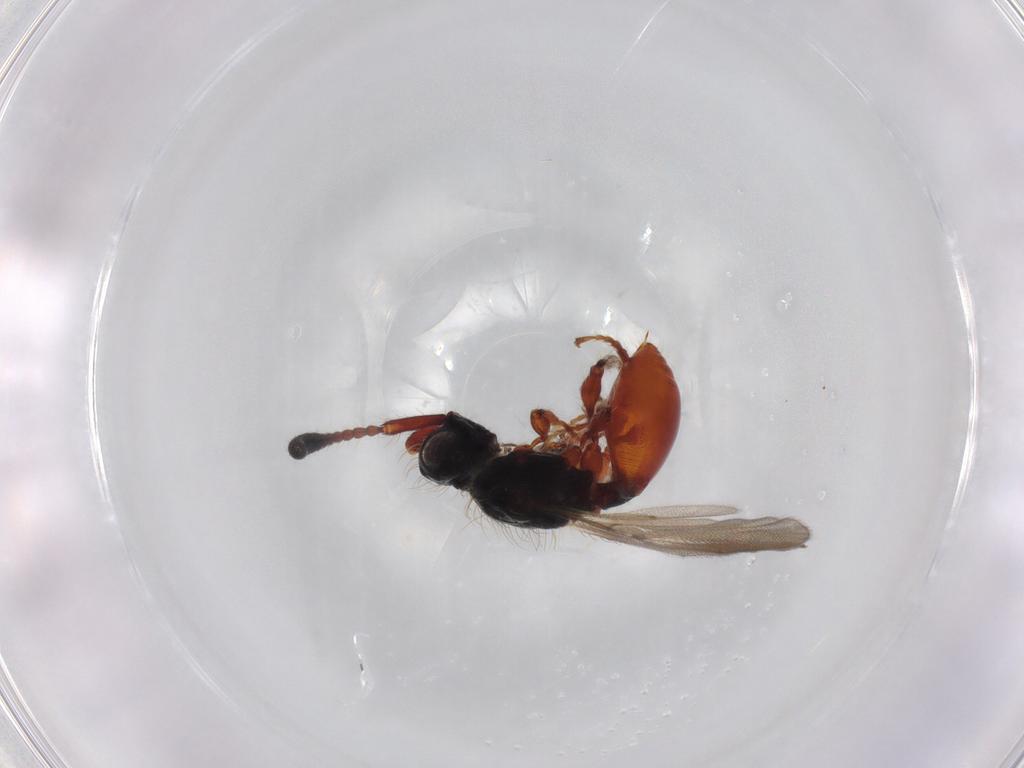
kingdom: Animalia
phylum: Arthropoda
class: Insecta
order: Hymenoptera
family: Diapriidae
